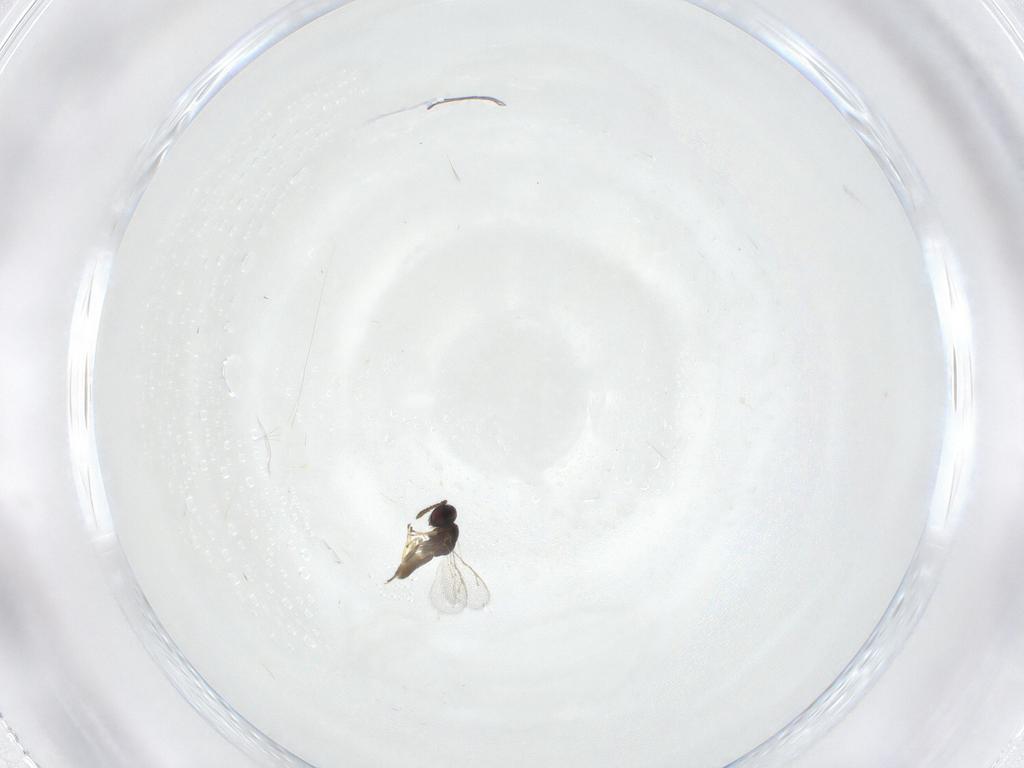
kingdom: Animalia
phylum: Arthropoda
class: Insecta
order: Hymenoptera
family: Pteromalidae
